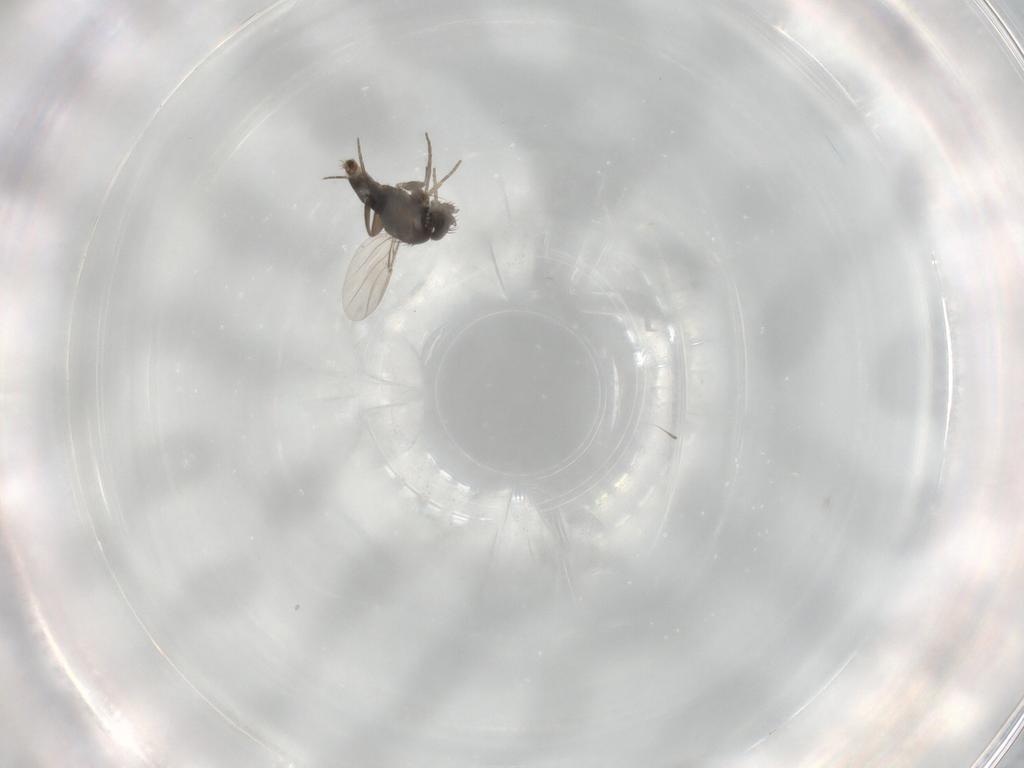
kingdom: Animalia
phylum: Arthropoda
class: Insecta
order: Diptera
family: Phoridae
